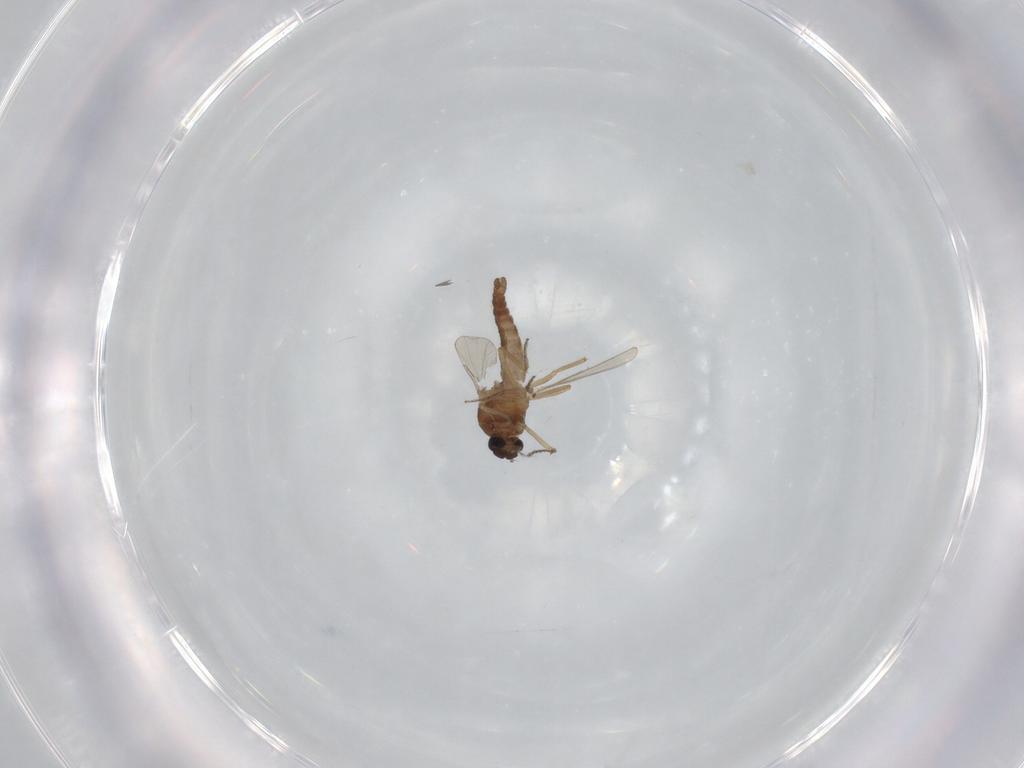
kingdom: Animalia
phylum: Arthropoda
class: Insecta
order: Diptera
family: Ceratopogonidae
